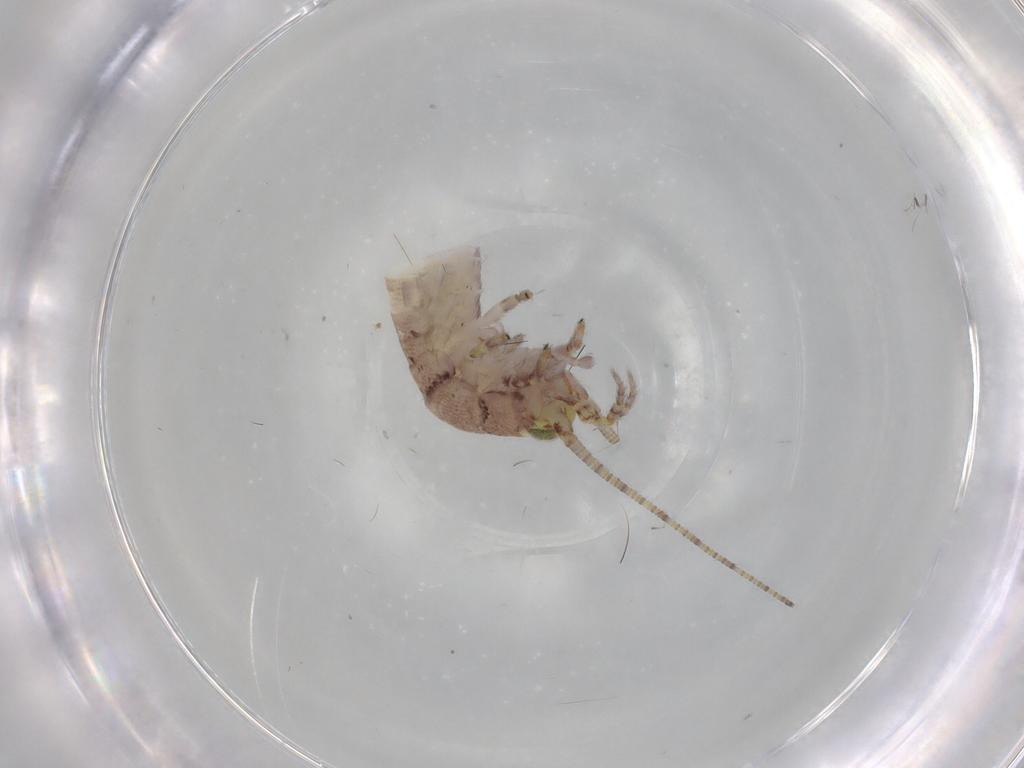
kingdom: Animalia
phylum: Arthropoda
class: Insecta
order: Archaeognatha
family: Machilidae
